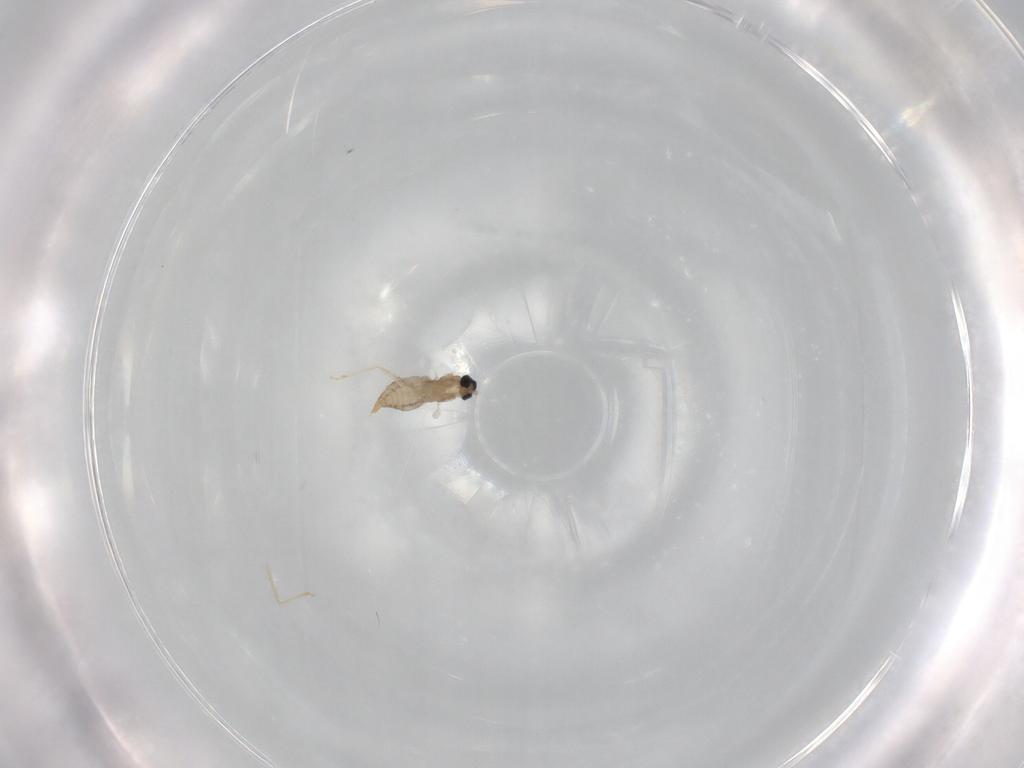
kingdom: Animalia
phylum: Arthropoda
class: Insecta
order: Diptera
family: Cecidomyiidae
